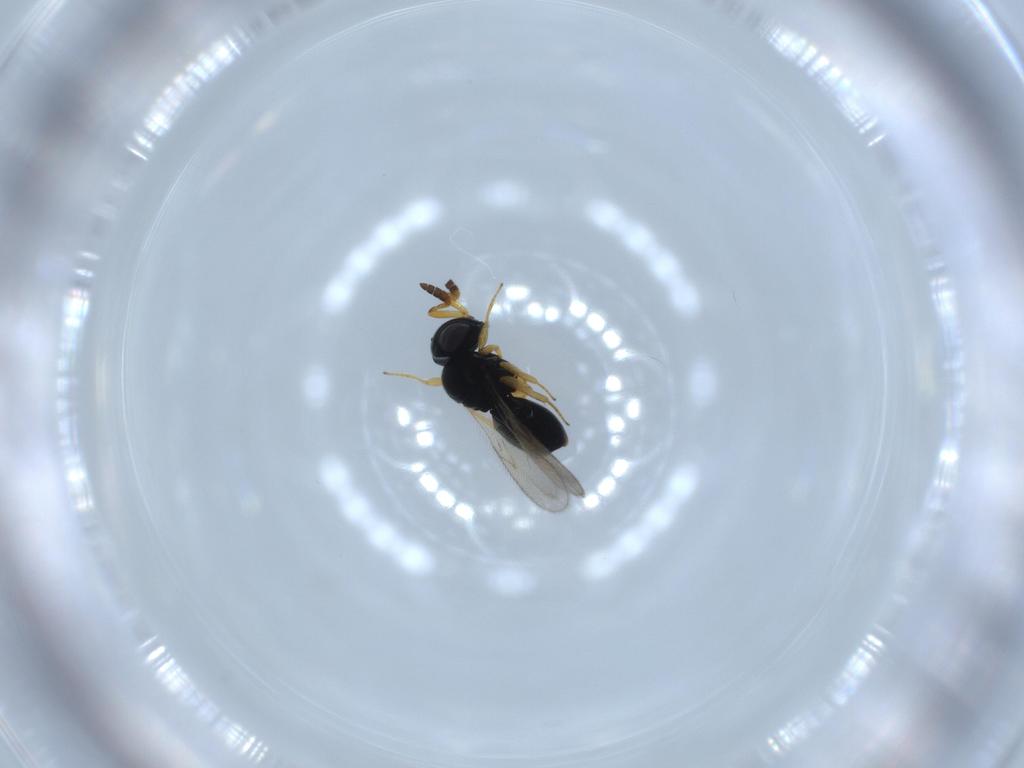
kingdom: Animalia
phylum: Arthropoda
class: Insecta
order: Hymenoptera
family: Scelionidae
